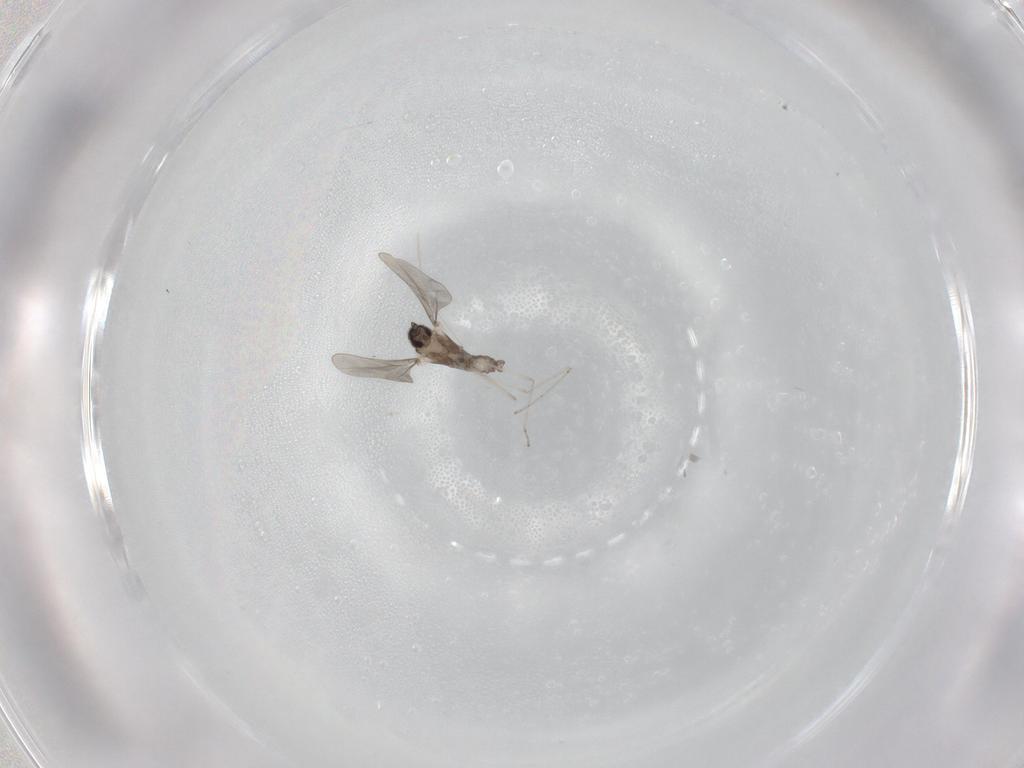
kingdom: Animalia
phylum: Arthropoda
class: Insecta
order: Diptera
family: Cecidomyiidae
